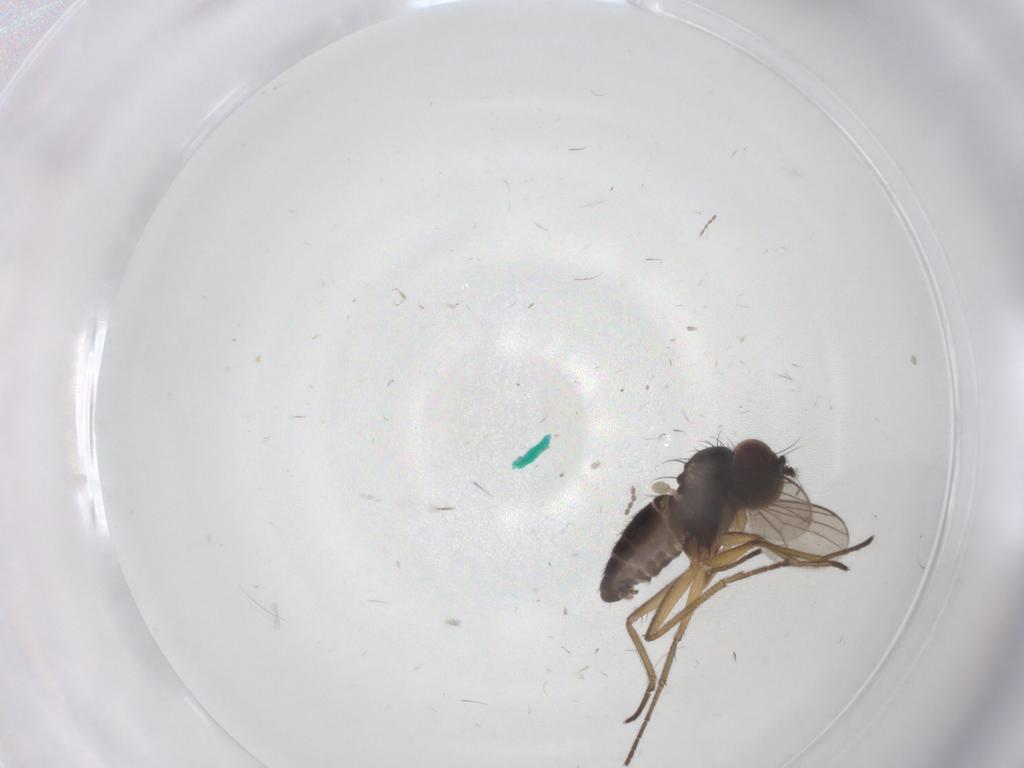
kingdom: Animalia
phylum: Arthropoda
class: Insecta
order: Diptera
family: Dolichopodidae
